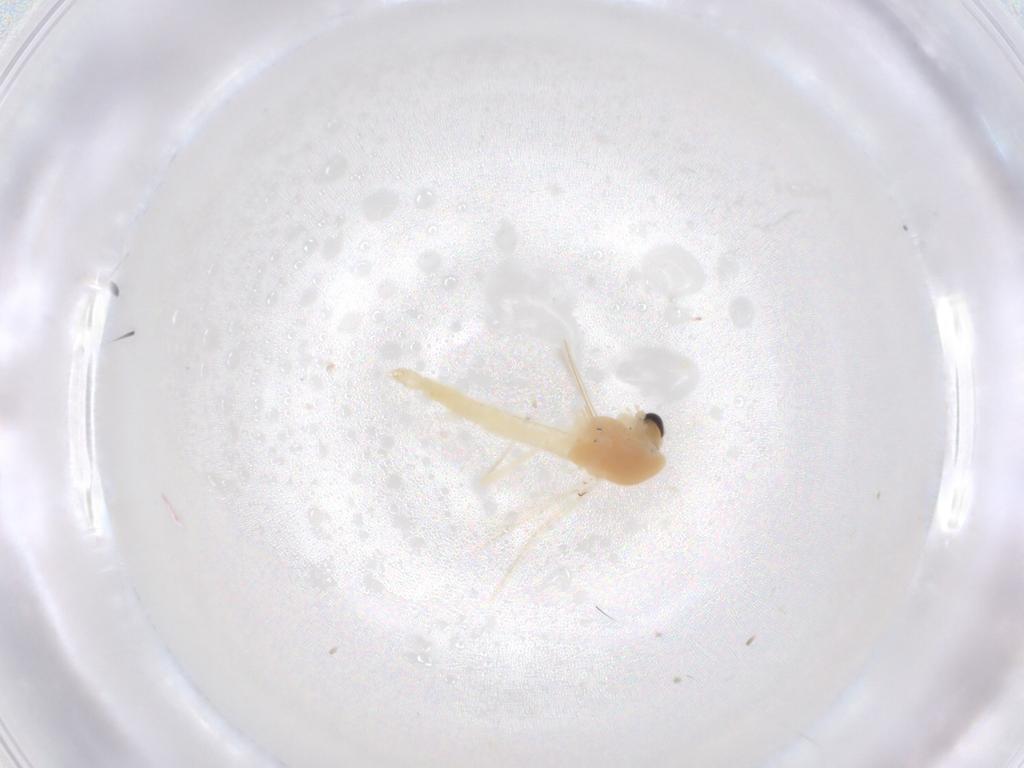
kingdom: Animalia
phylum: Arthropoda
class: Insecta
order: Diptera
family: Chironomidae
